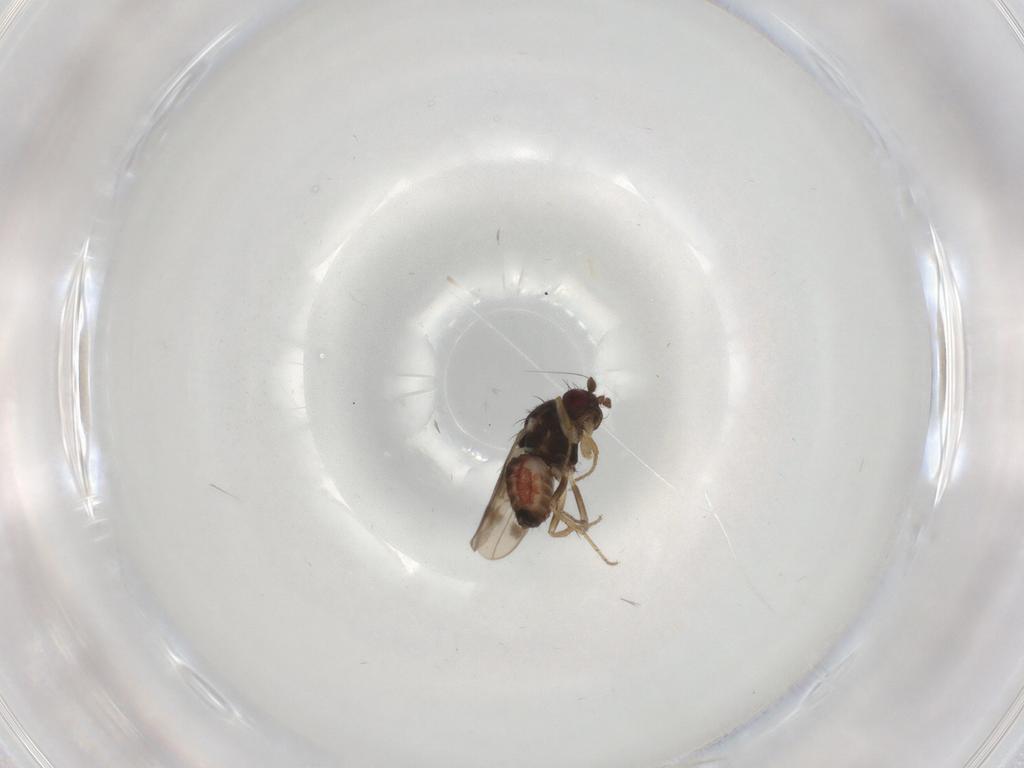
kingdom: Animalia
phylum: Arthropoda
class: Insecta
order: Diptera
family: Sphaeroceridae
